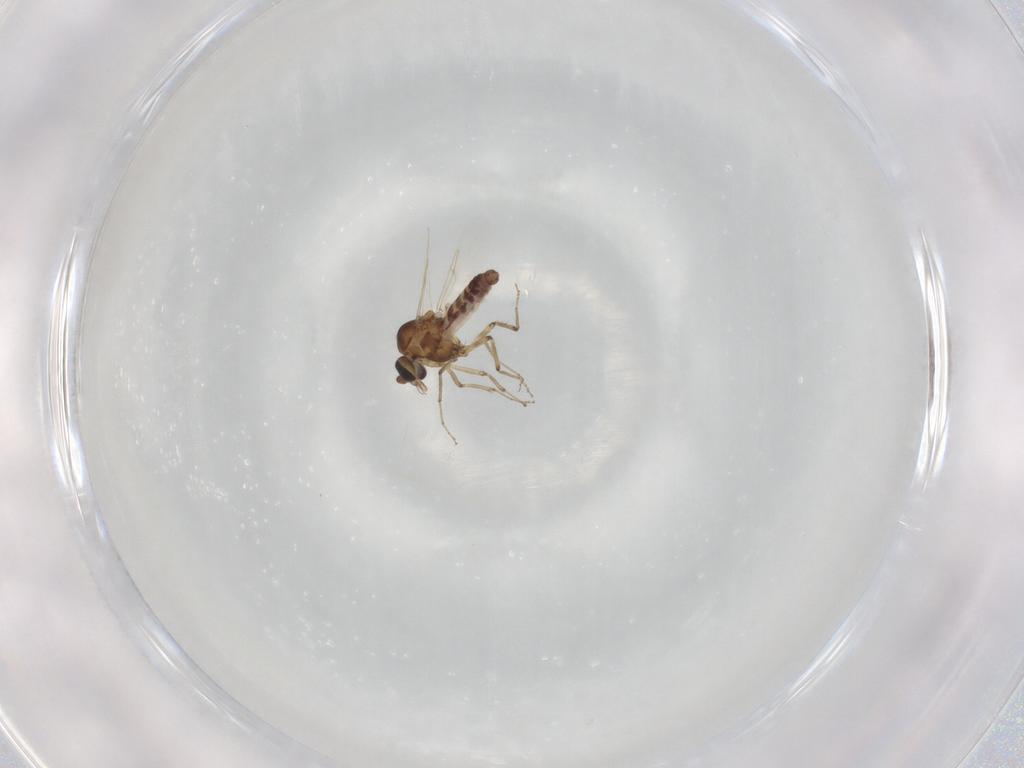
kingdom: Animalia
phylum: Arthropoda
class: Insecta
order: Diptera
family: Ceratopogonidae
